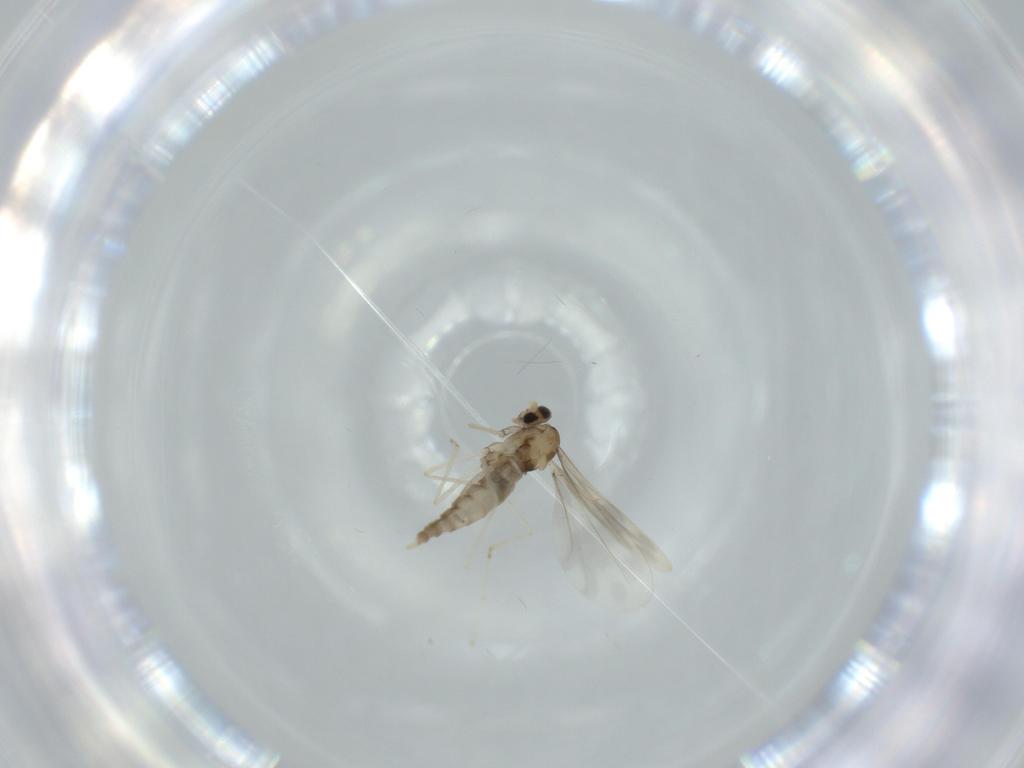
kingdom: Animalia
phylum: Arthropoda
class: Insecta
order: Diptera
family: Cecidomyiidae
